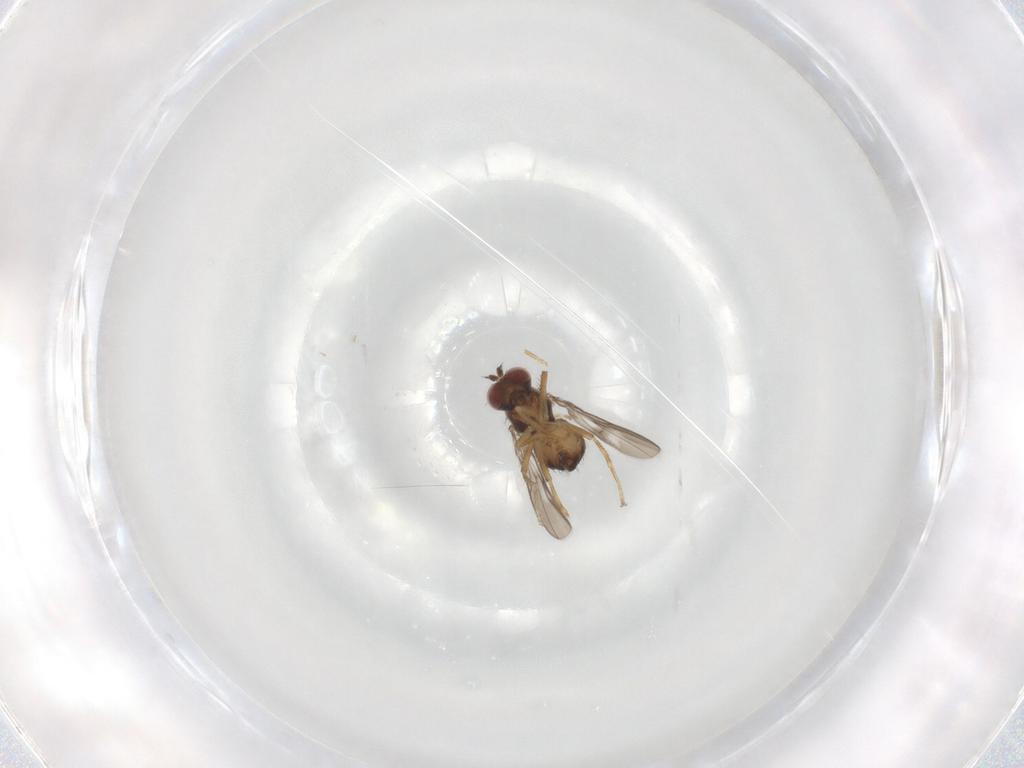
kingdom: Animalia
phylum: Arthropoda
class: Insecta
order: Diptera
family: Ephydridae
